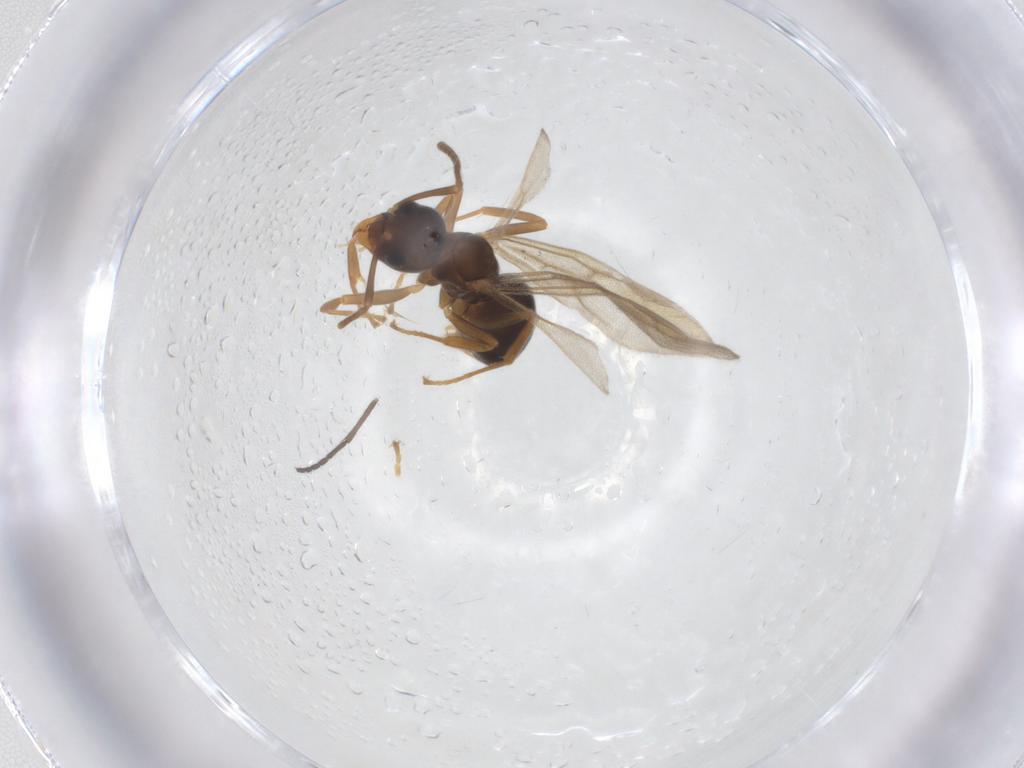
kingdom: Animalia
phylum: Arthropoda
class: Insecta
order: Hymenoptera
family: Formicidae
